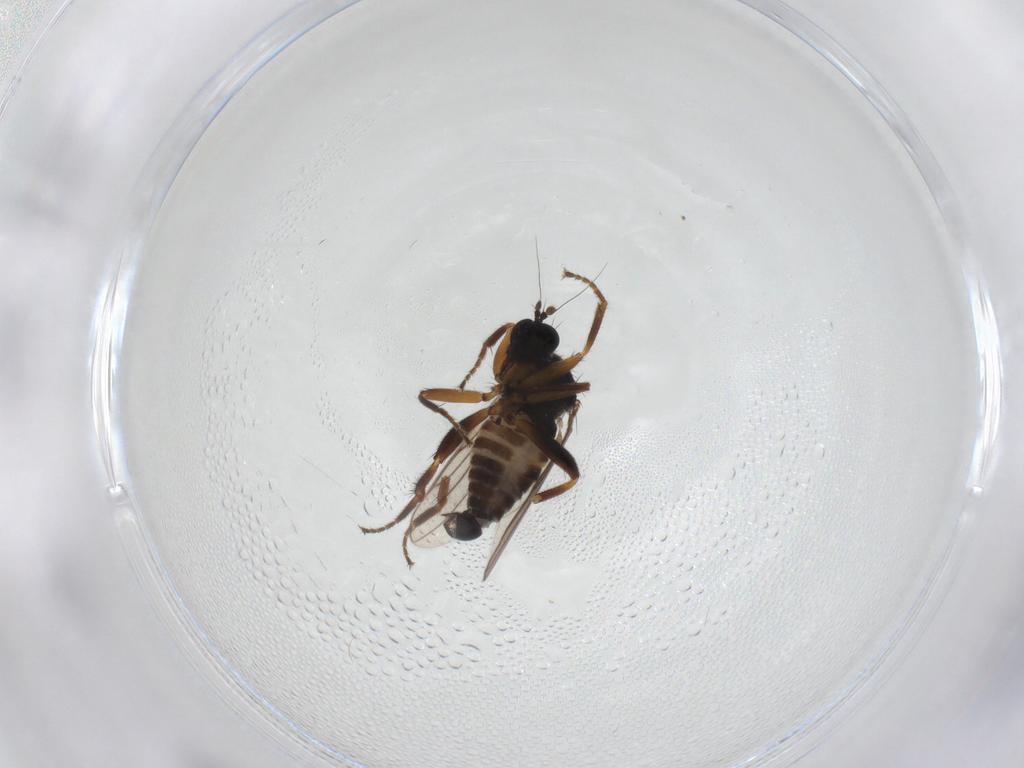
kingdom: Animalia
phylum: Arthropoda
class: Insecta
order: Diptera
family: Hybotidae
